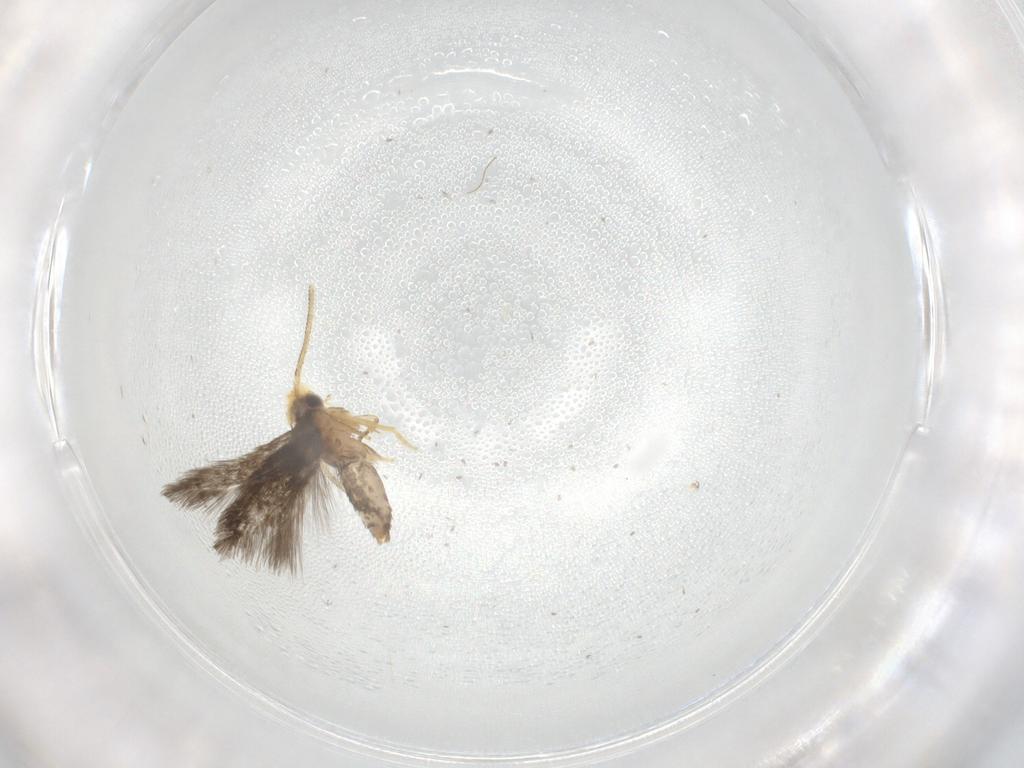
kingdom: Animalia
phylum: Arthropoda
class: Insecta
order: Lepidoptera
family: Nepticulidae
